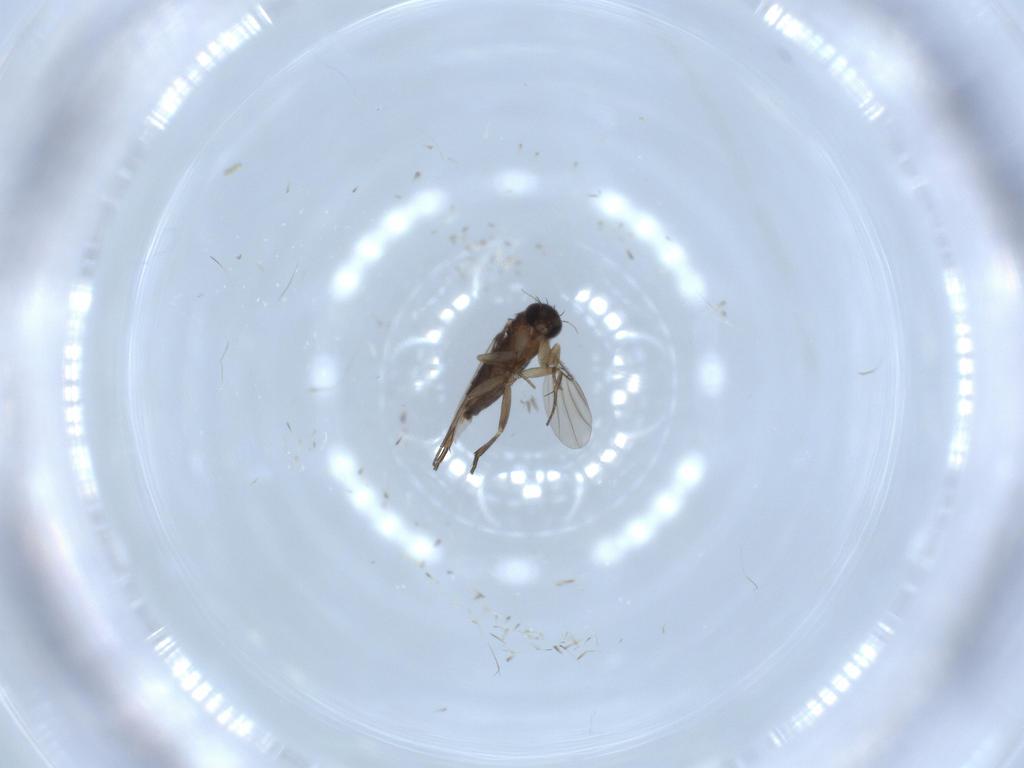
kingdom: Animalia
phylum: Arthropoda
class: Insecta
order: Diptera
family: Phoridae
